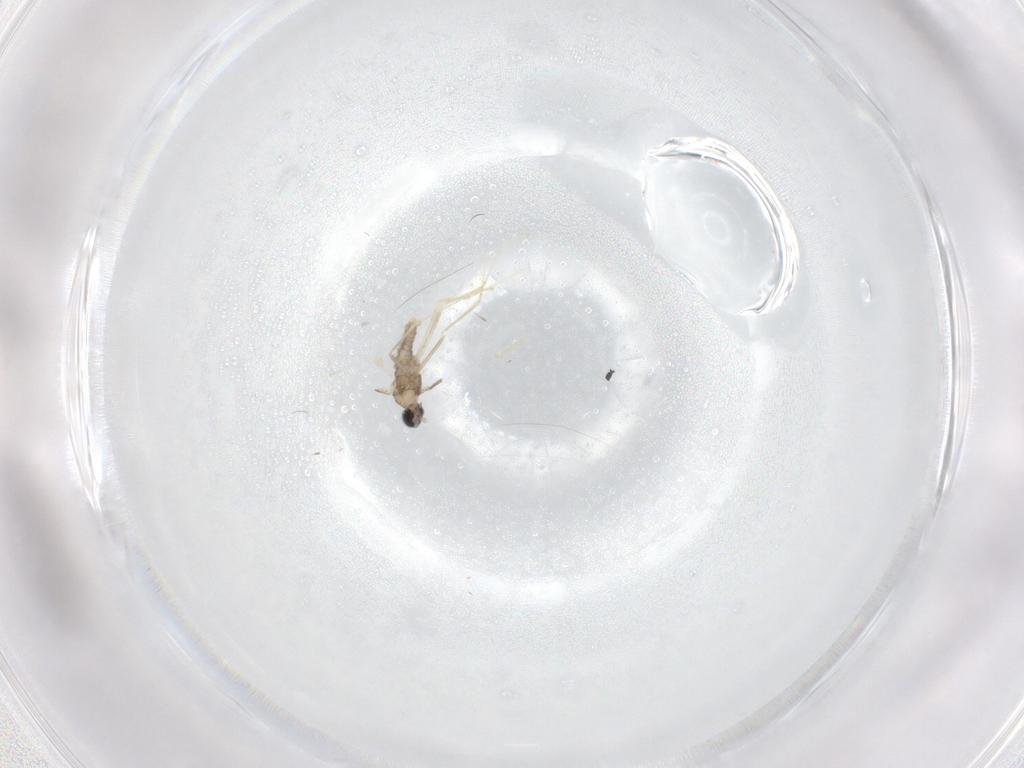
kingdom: Animalia
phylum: Arthropoda
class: Insecta
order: Diptera
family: Cecidomyiidae
